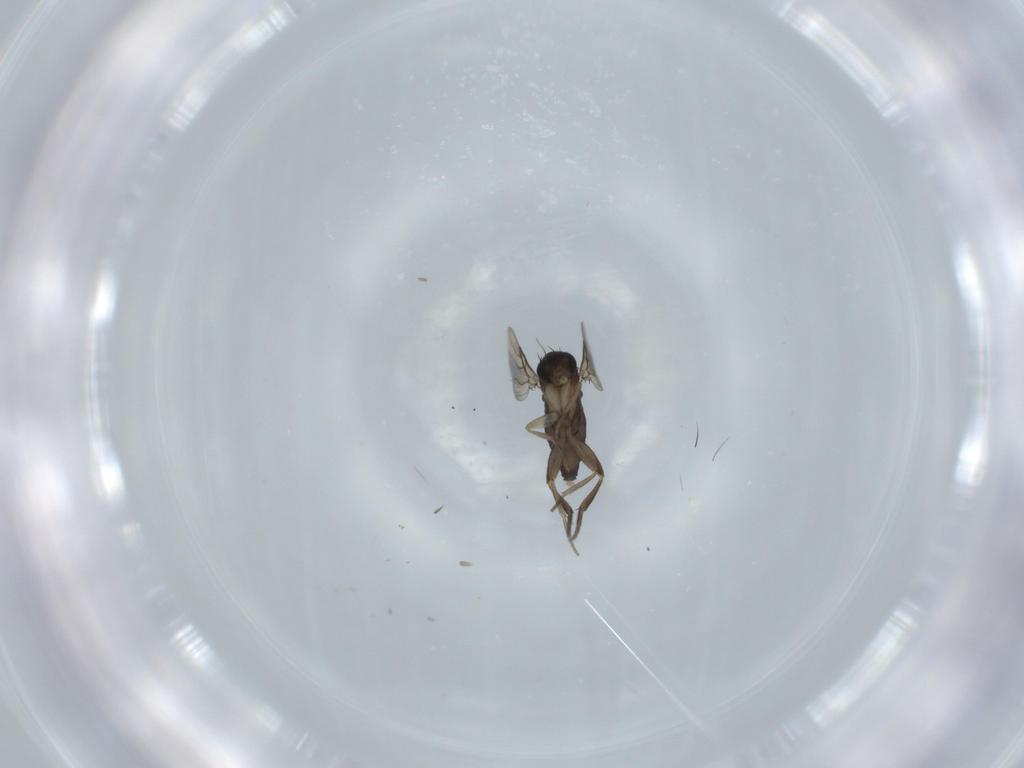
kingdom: Animalia
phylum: Arthropoda
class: Insecta
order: Diptera
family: Phoridae
